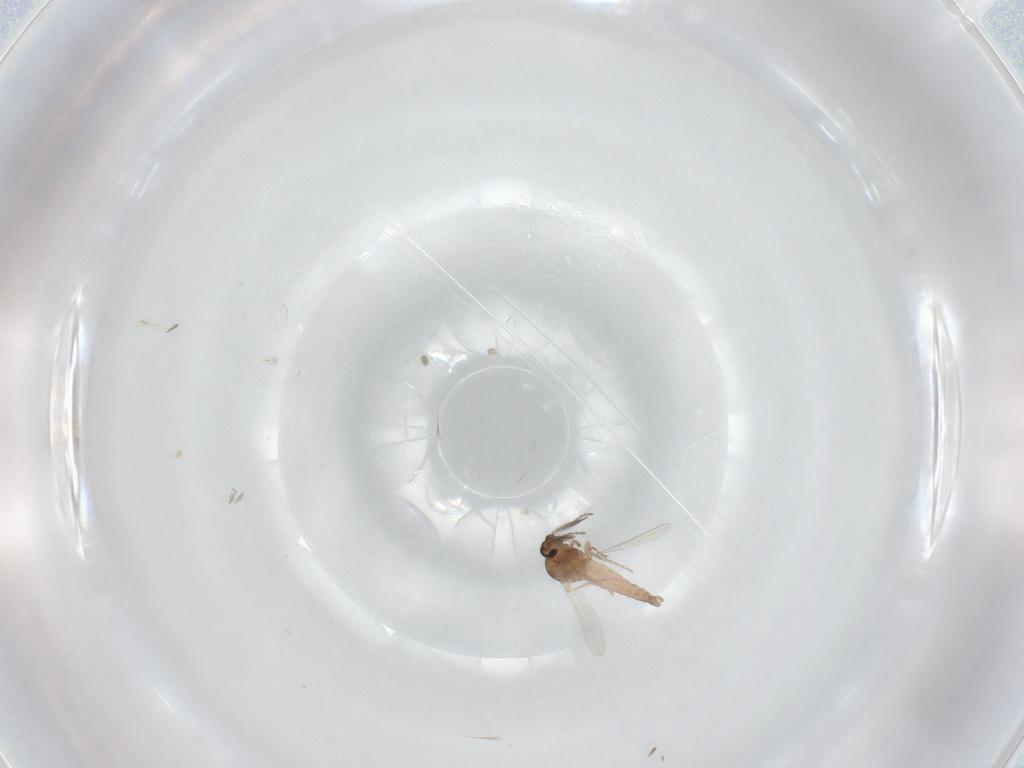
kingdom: Animalia
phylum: Arthropoda
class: Insecta
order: Diptera
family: Ceratopogonidae
